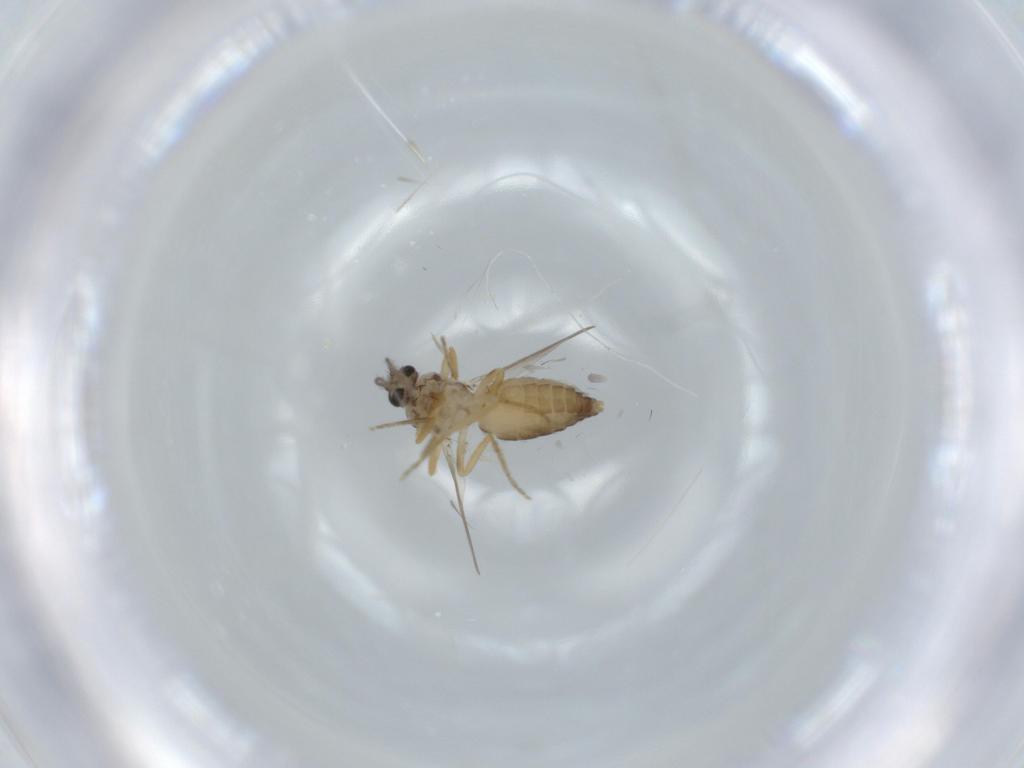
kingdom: Animalia
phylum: Arthropoda
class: Insecta
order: Diptera
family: Ceratopogonidae
